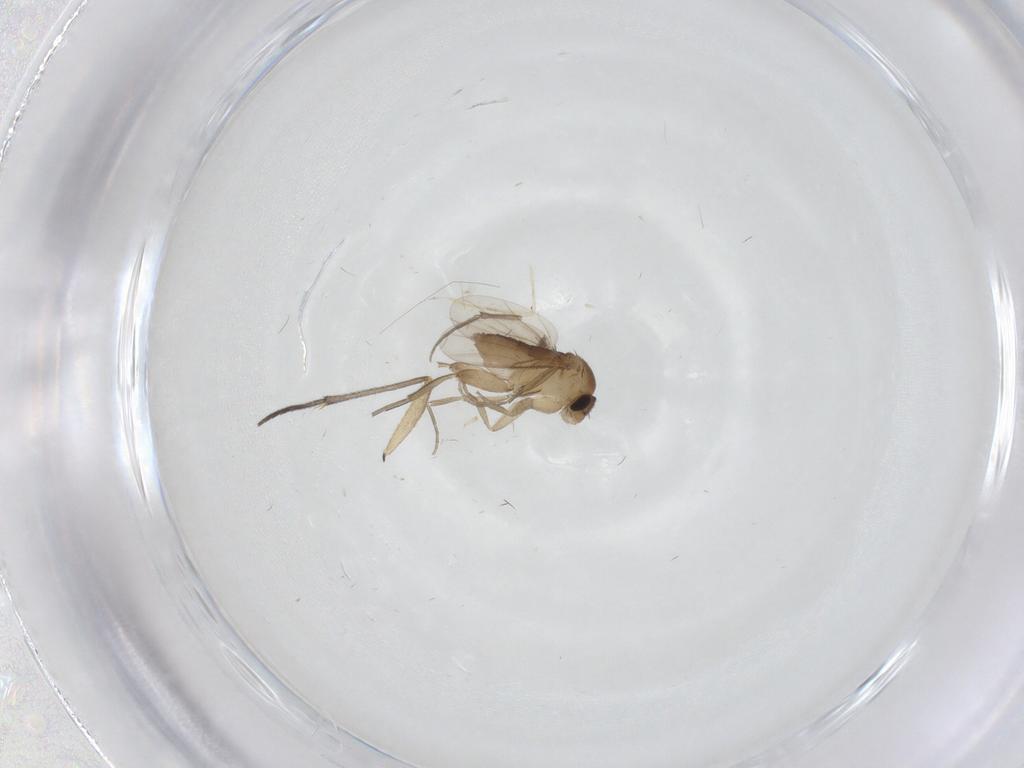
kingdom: Animalia
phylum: Arthropoda
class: Insecta
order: Diptera
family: Phoridae
